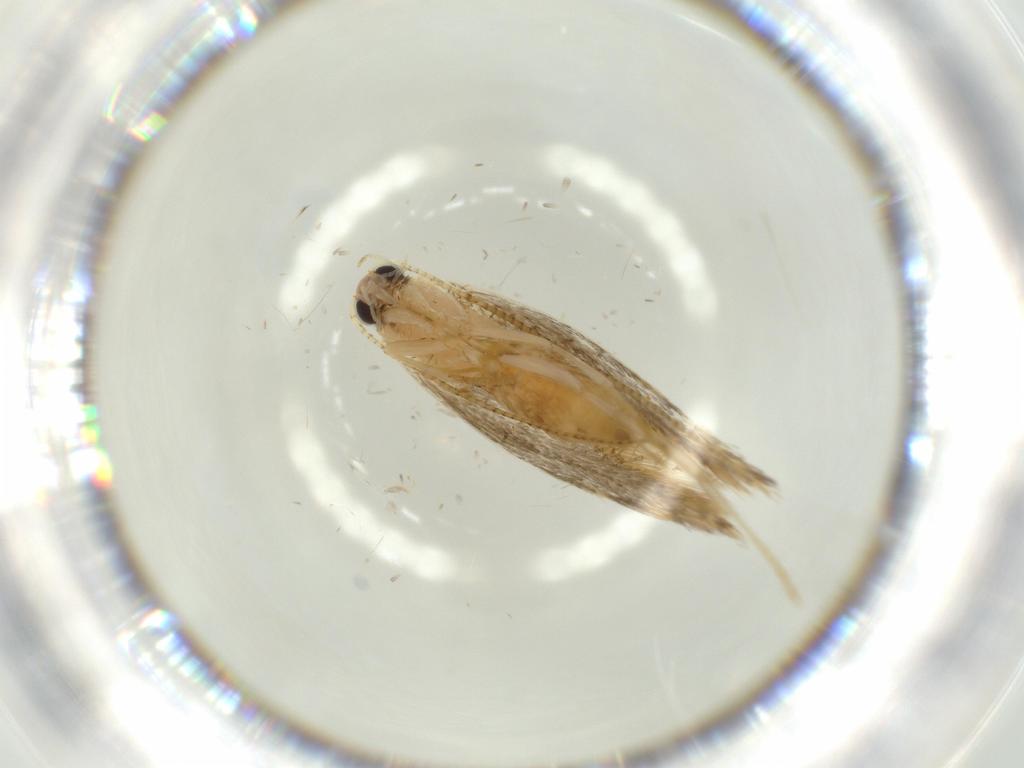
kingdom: Animalia
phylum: Arthropoda
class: Insecta
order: Lepidoptera
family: Tineidae
